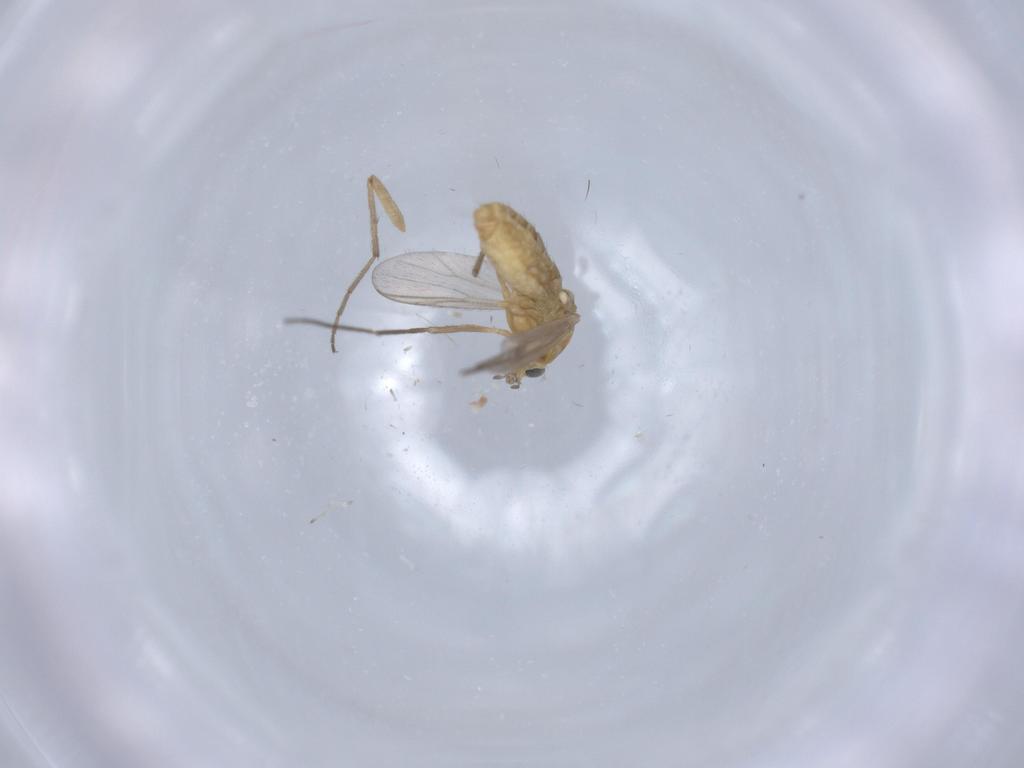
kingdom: Animalia
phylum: Arthropoda
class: Insecta
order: Diptera
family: Chironomidae
